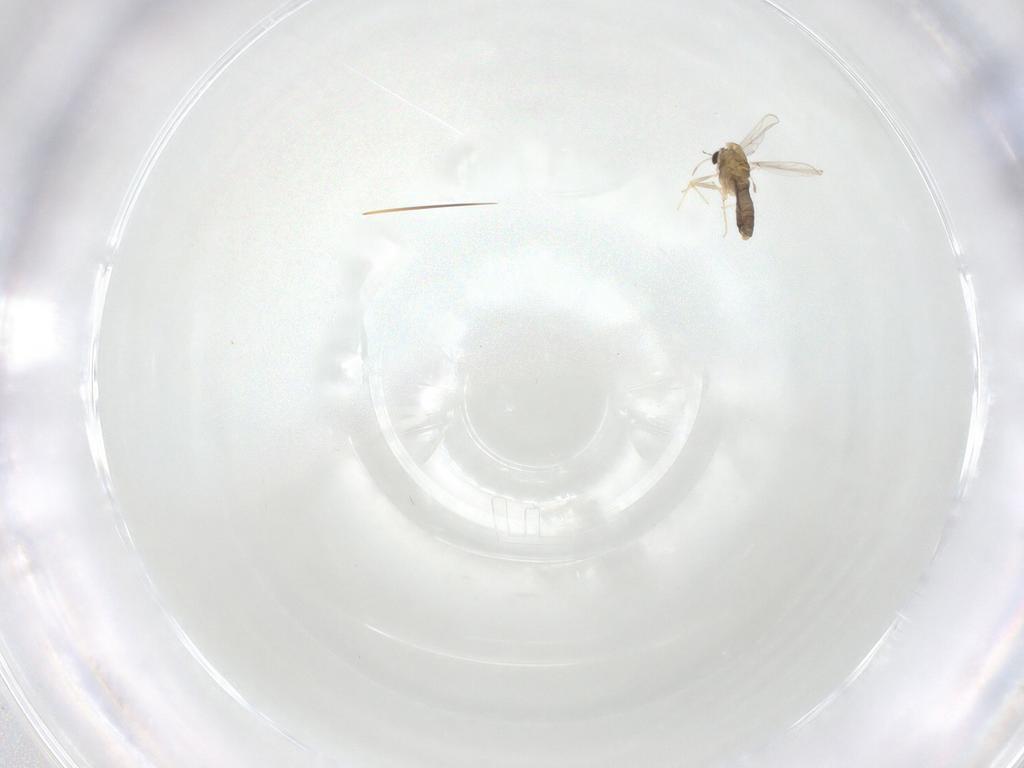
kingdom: Animalia
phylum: Arthropoda
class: Insecta
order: Diptera
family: Chironomidae
